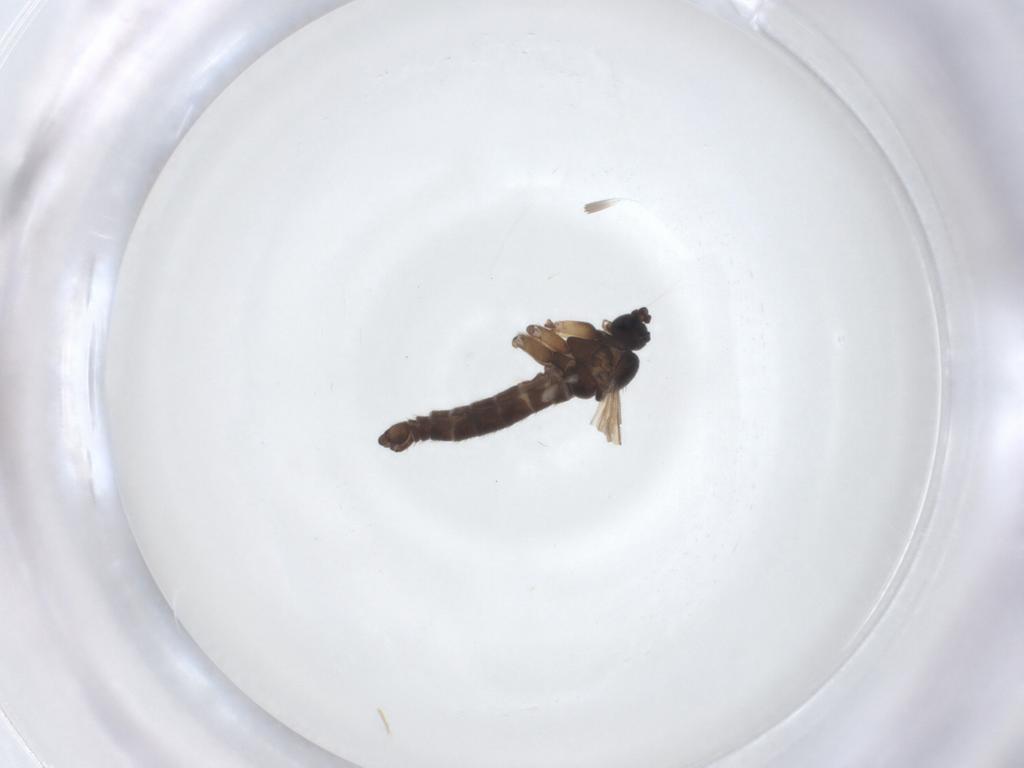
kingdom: Animalia
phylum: Arthropoda
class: Insecta
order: Diptera
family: Sciaridae
